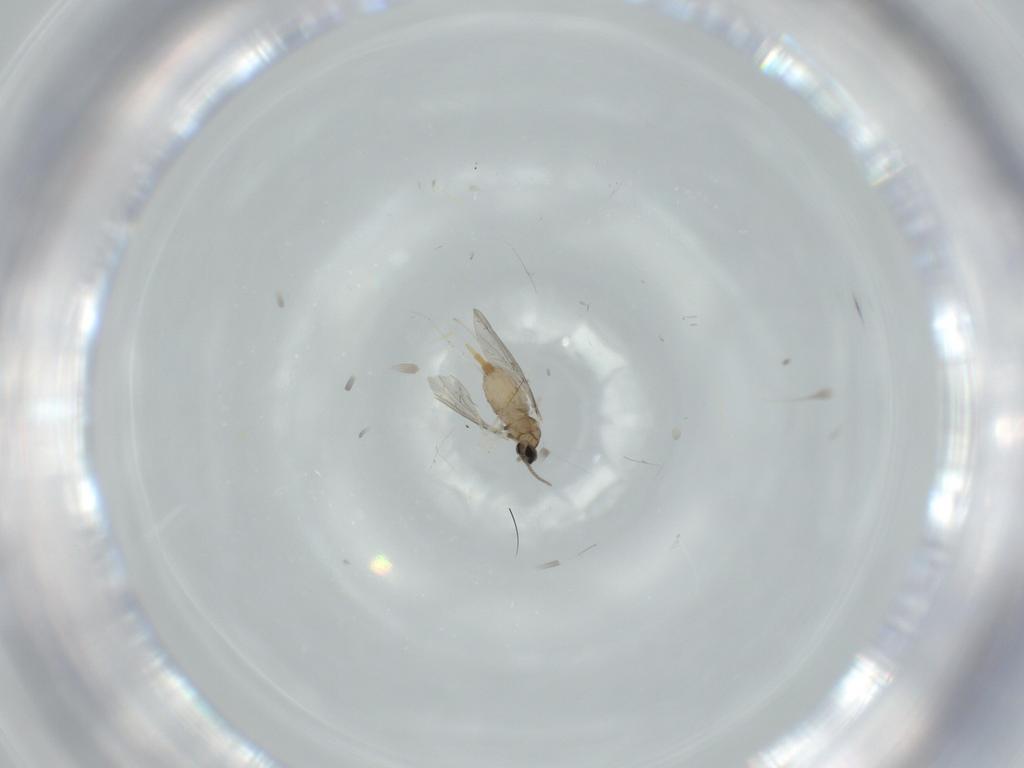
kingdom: Animalia
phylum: Arthropoda
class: Insecta
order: Diptera
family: Cecidomyiidae
